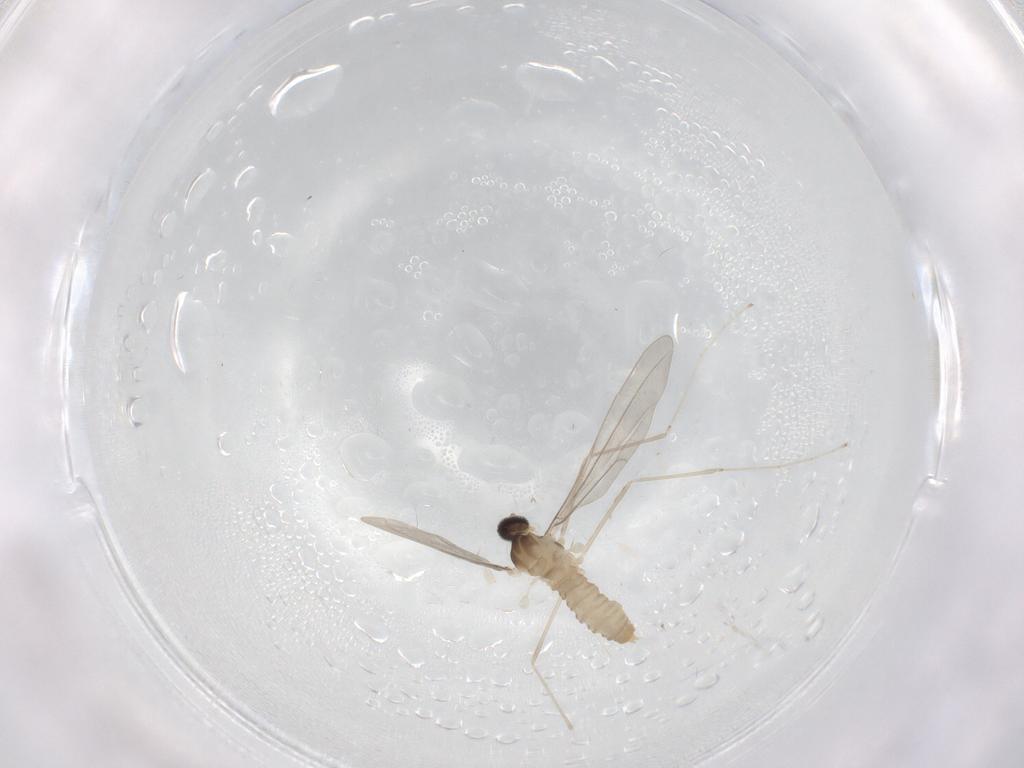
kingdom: Animalia
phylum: Arthropoda
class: Insecta
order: Diptera
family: Cecidomyiidae
